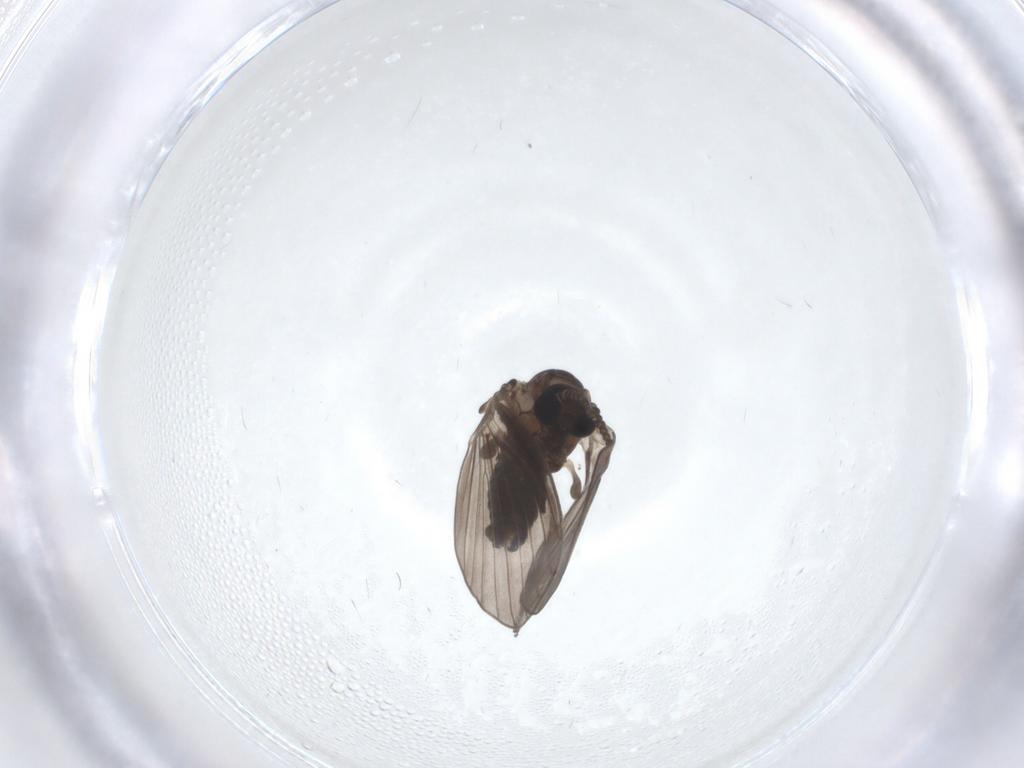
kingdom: Animalia
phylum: Arthropoda
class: Insecta
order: Diptera
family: Psychodidae
